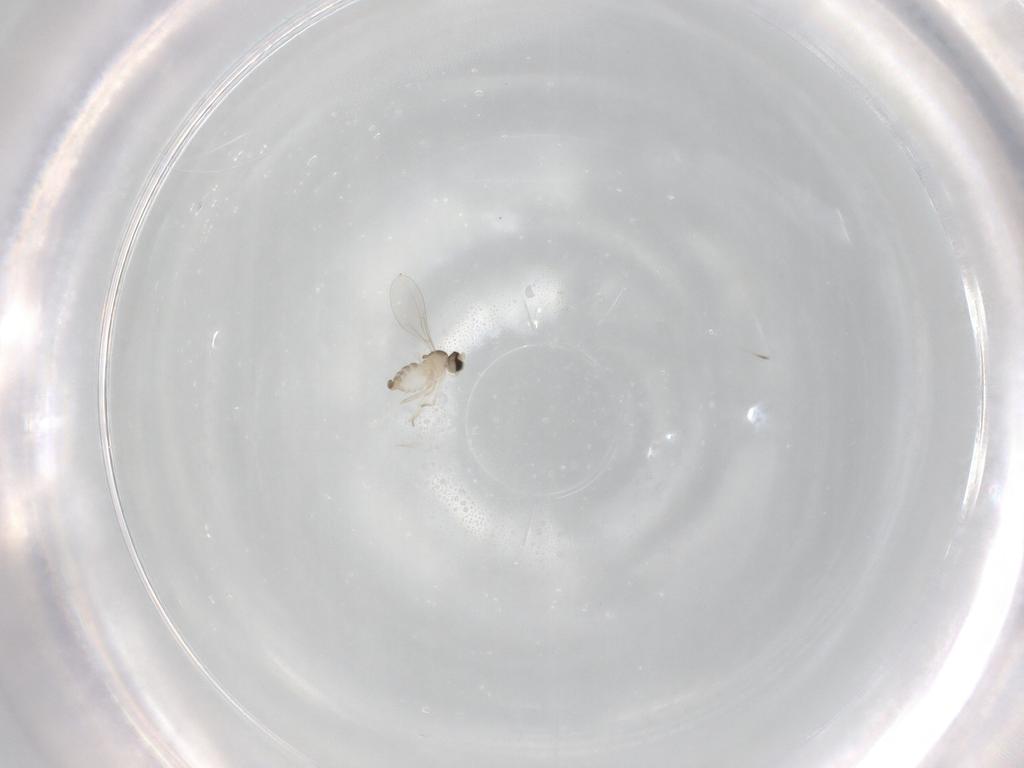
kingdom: Animalia
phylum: Arthropoda
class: Insecta
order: Diptera
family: Cecidomyiidae
